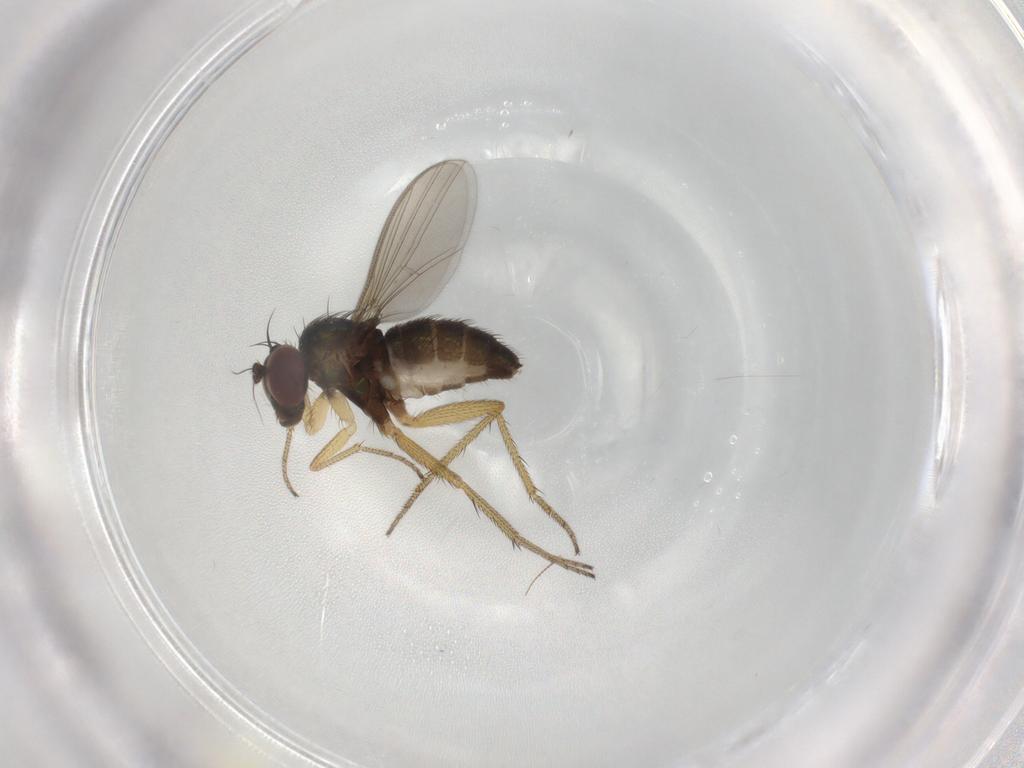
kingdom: Animalia
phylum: Arthropoda
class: Insecta
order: Diptera
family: Dolichopodidae
